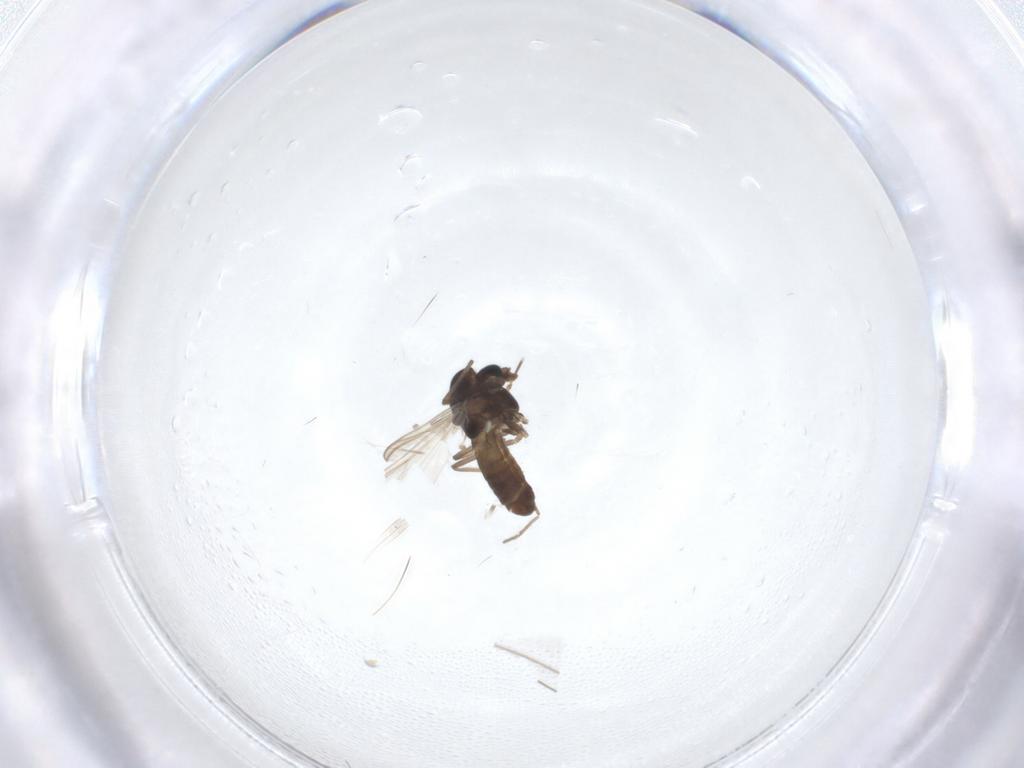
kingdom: Animalia
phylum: Arthropoda
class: Insecta
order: Diptera
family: Chironomidae
